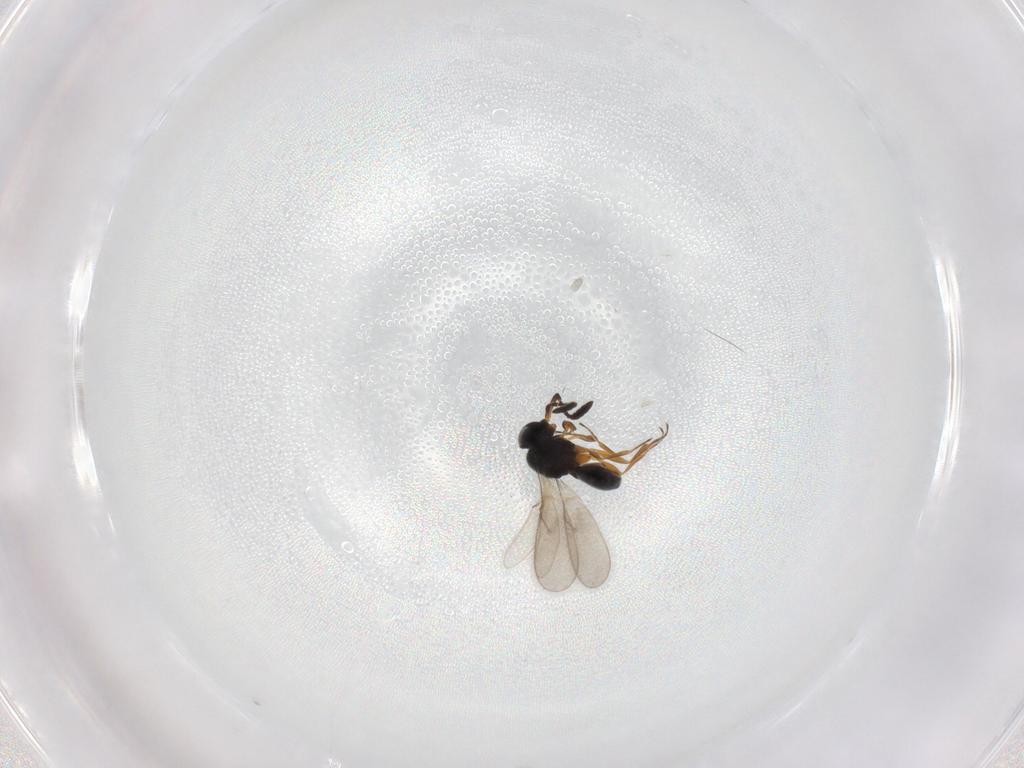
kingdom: Animalia
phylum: Arthropoda
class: Insecta
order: Hymenoptera
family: Scelionidae
